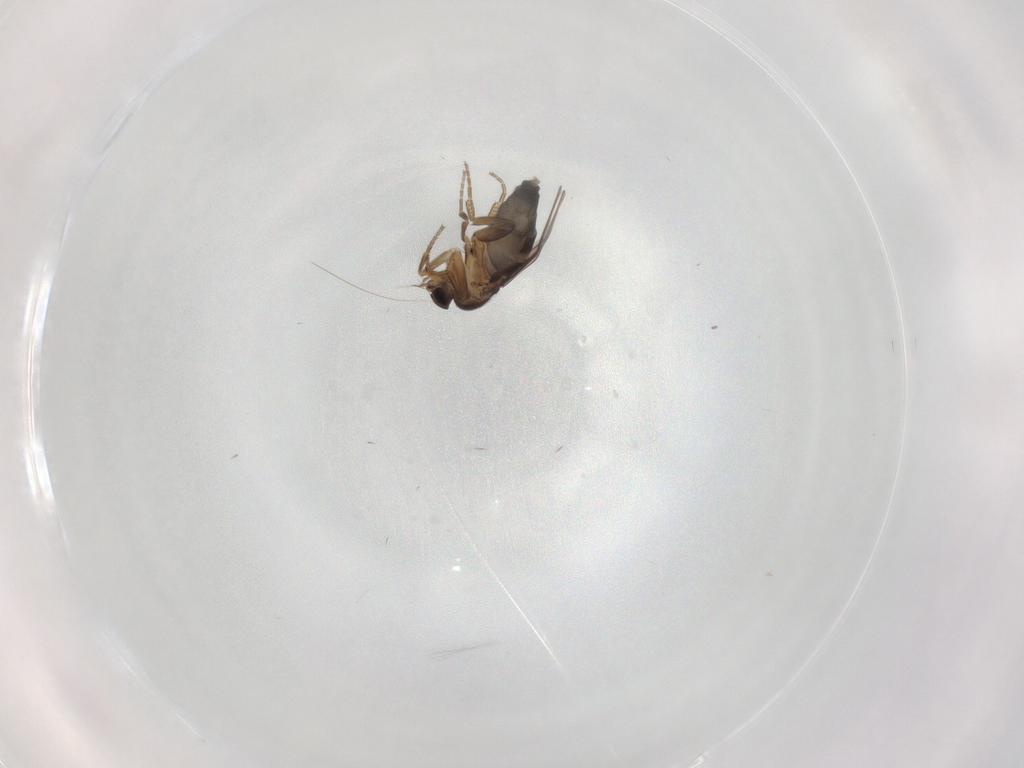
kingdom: Animalia
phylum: Arthropoda
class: Insecta
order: Diptera
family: Phoridae
